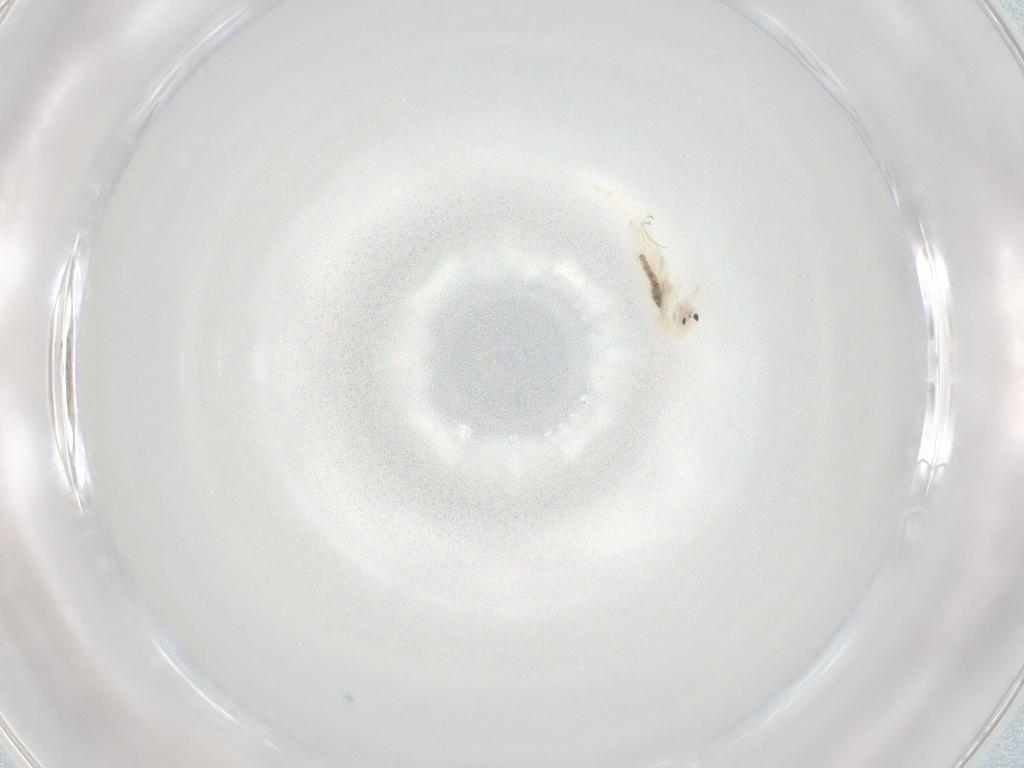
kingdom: Animalia
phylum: Arthropoda
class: Collembola
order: Entomobryomorpha
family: Entomobryidae
